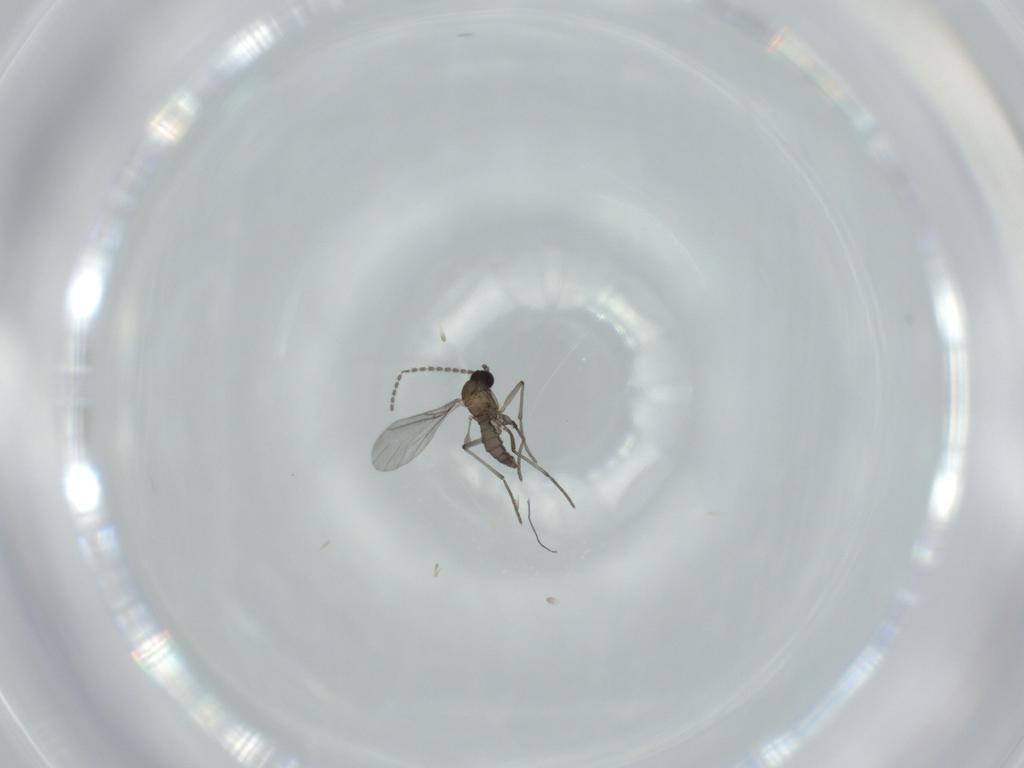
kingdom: Animalia
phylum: Arthropoda
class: Insecta
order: Diptera
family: Sciaridae
